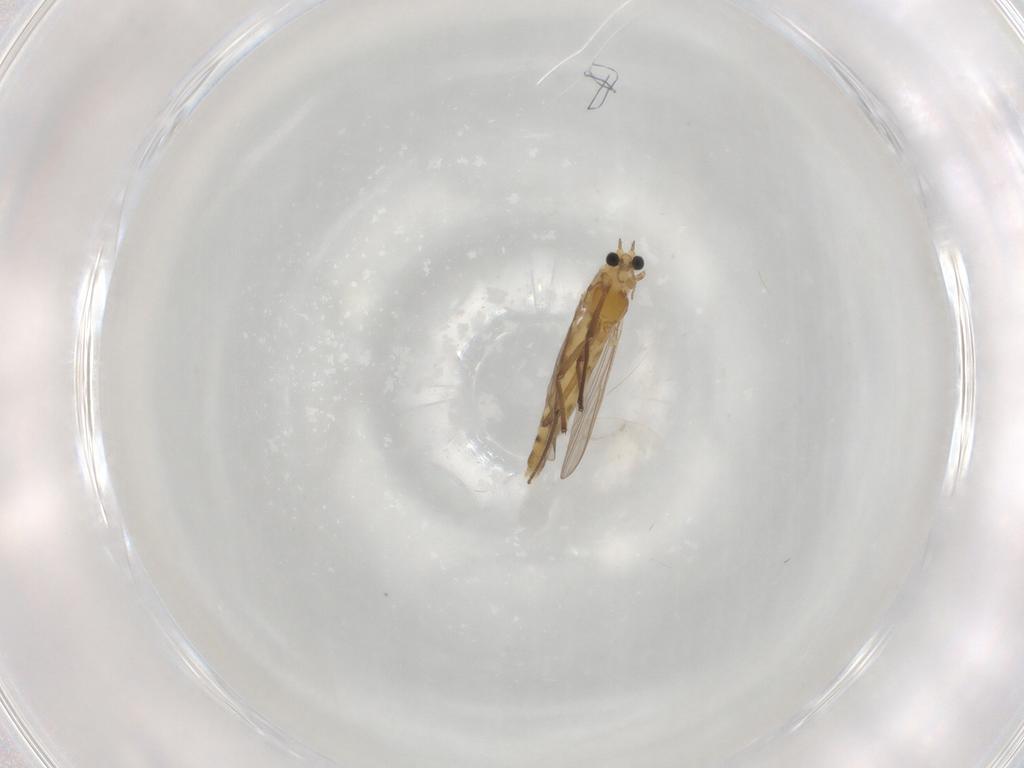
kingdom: Animalia
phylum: Arthropoda
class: Insecta
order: Diptera
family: Chironomidae
